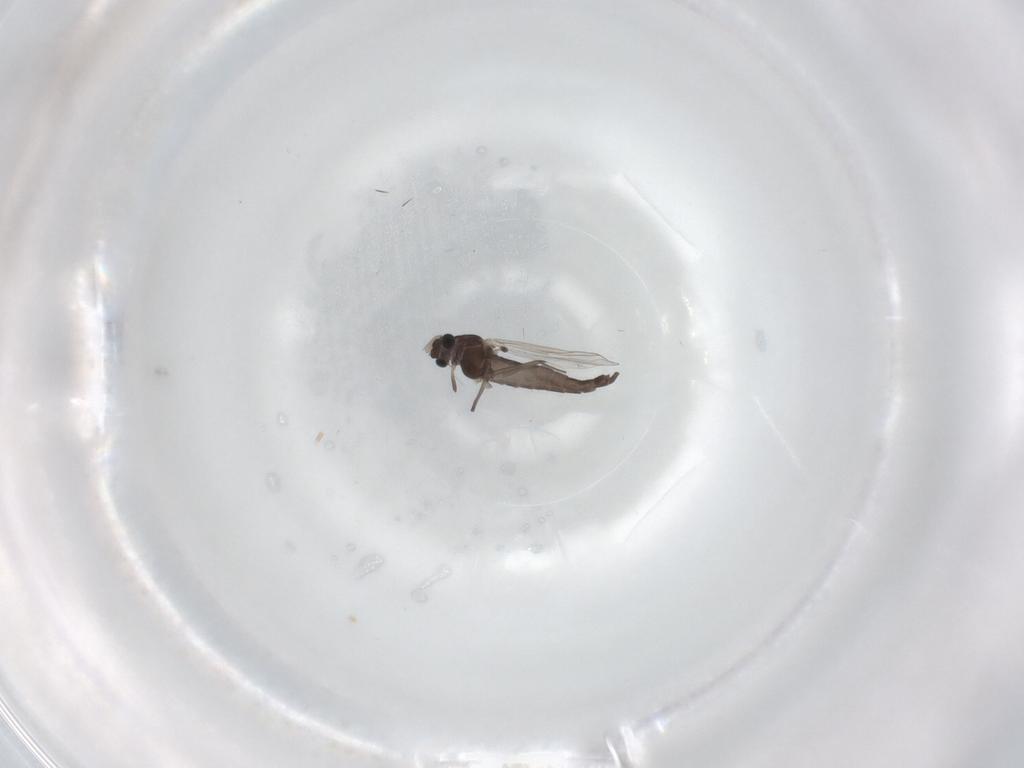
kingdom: Animalia
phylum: Arthropoda
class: Insecta
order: Diptera
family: Chironomidae
